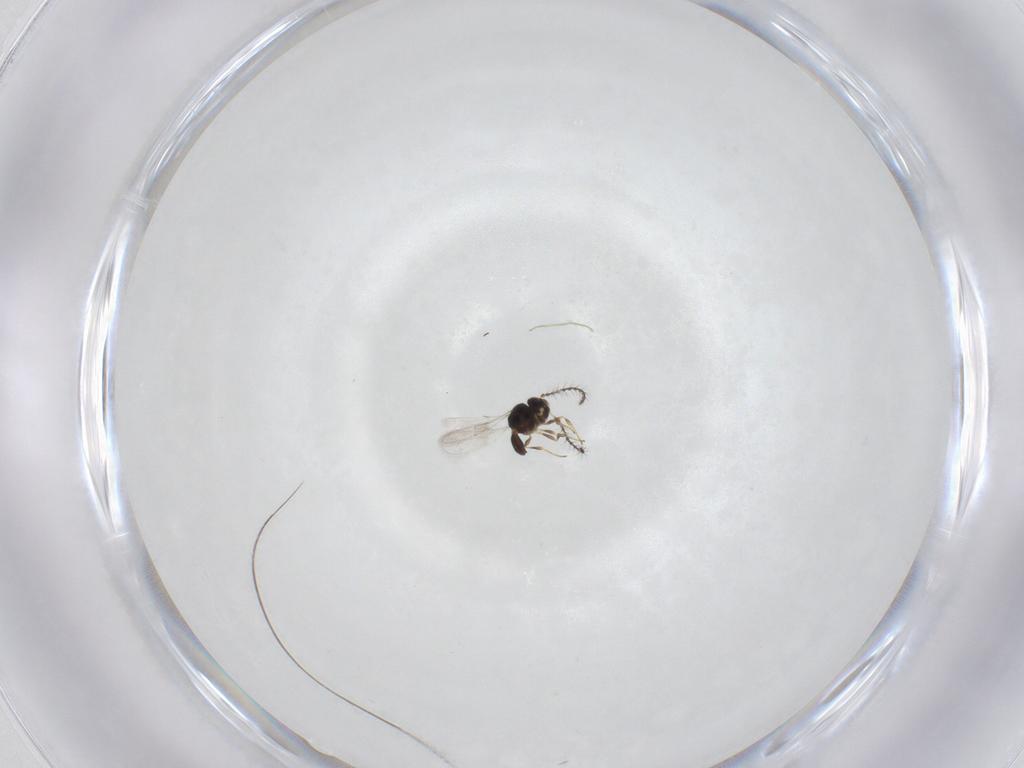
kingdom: Animalia
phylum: Arthropoda
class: Insecta
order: Hymenoptera
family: Scelionidae
